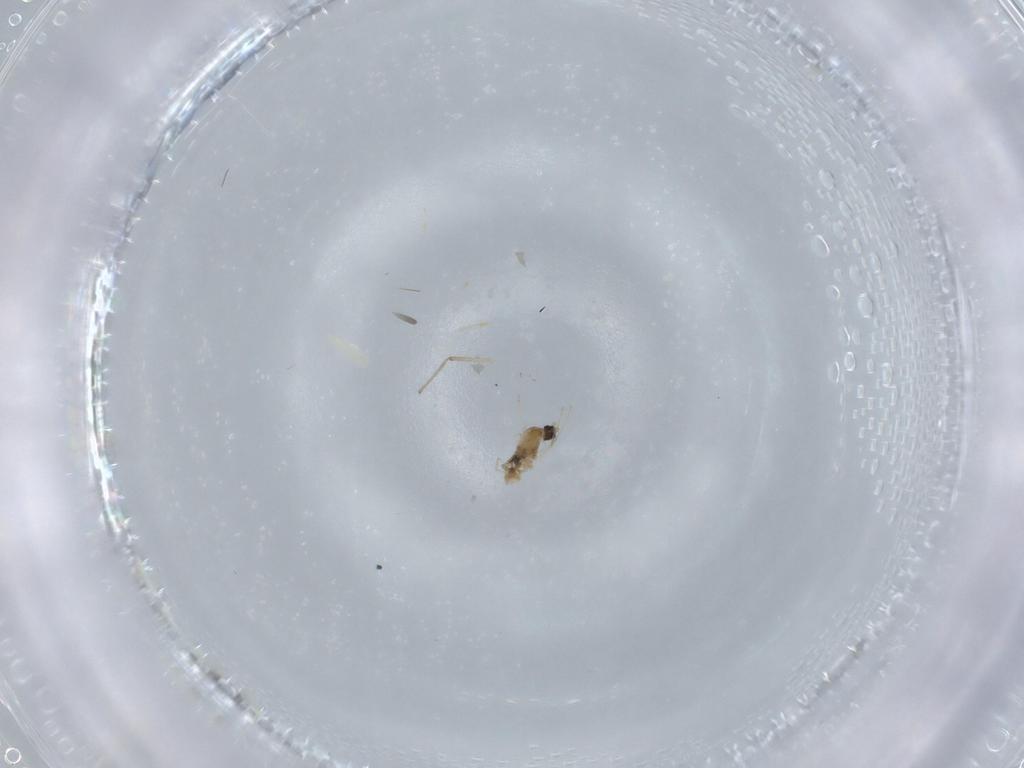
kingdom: Animalia
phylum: Arthropoda
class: Insecta
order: Diptera
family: Cecidomyiidae
